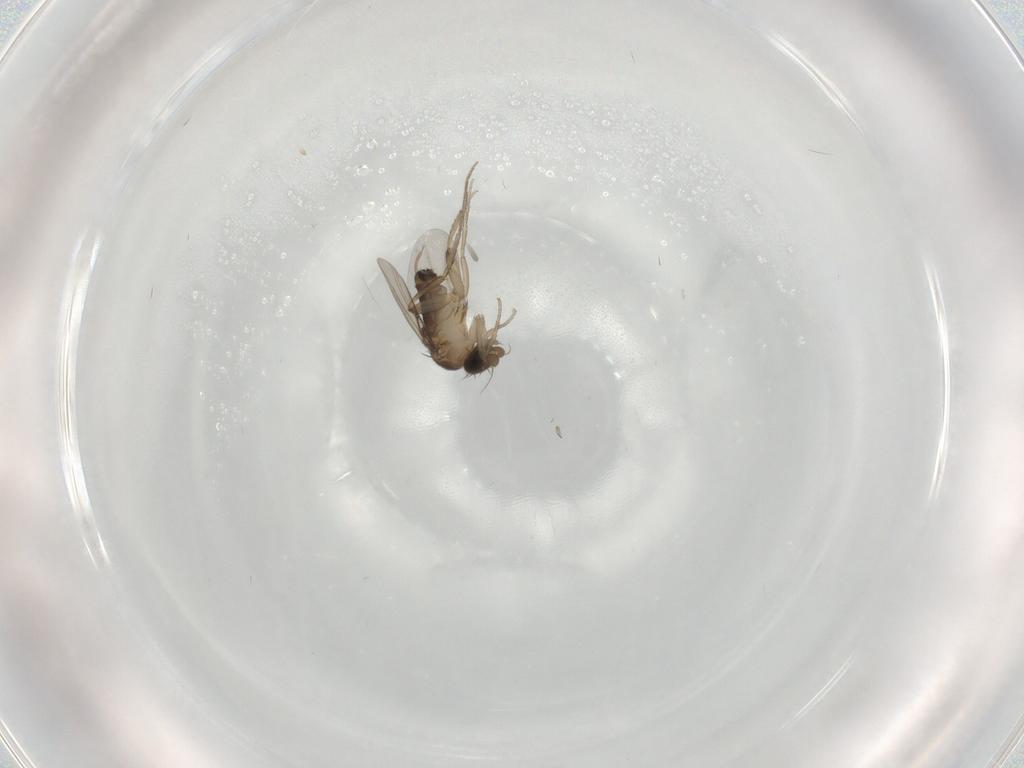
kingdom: Animalia
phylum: Arthropoda
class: Insecta
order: Diptera
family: Phoridae
